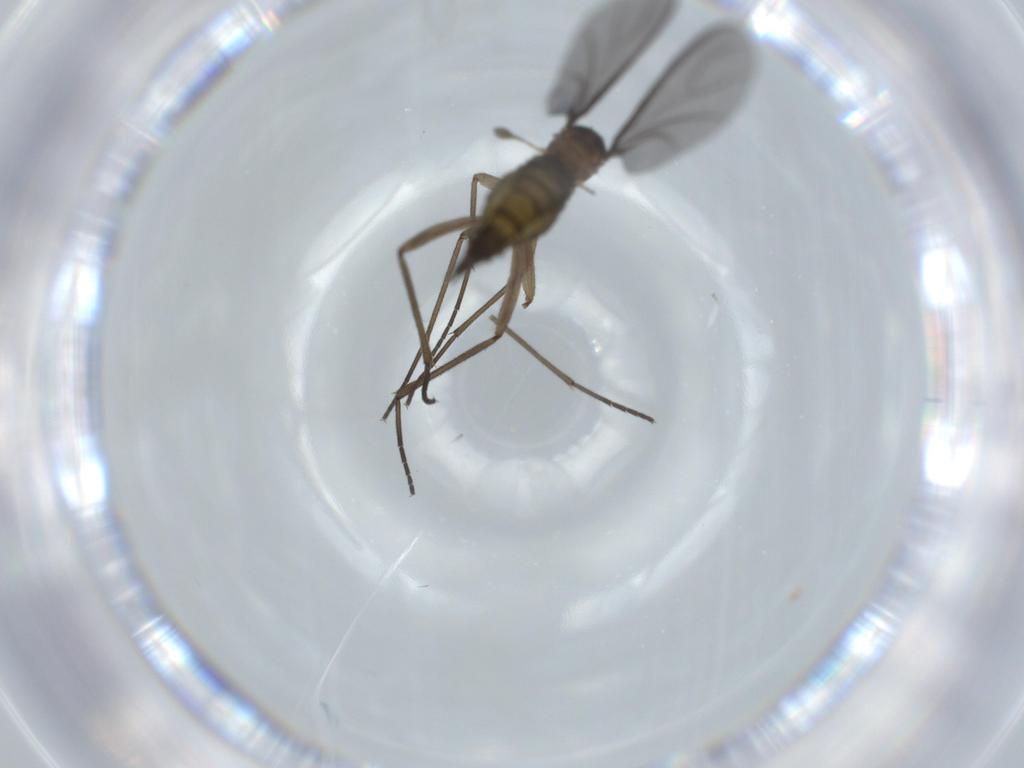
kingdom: Animalia
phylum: Arthropoda
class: Insecta
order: Diptera
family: Sciaridae
